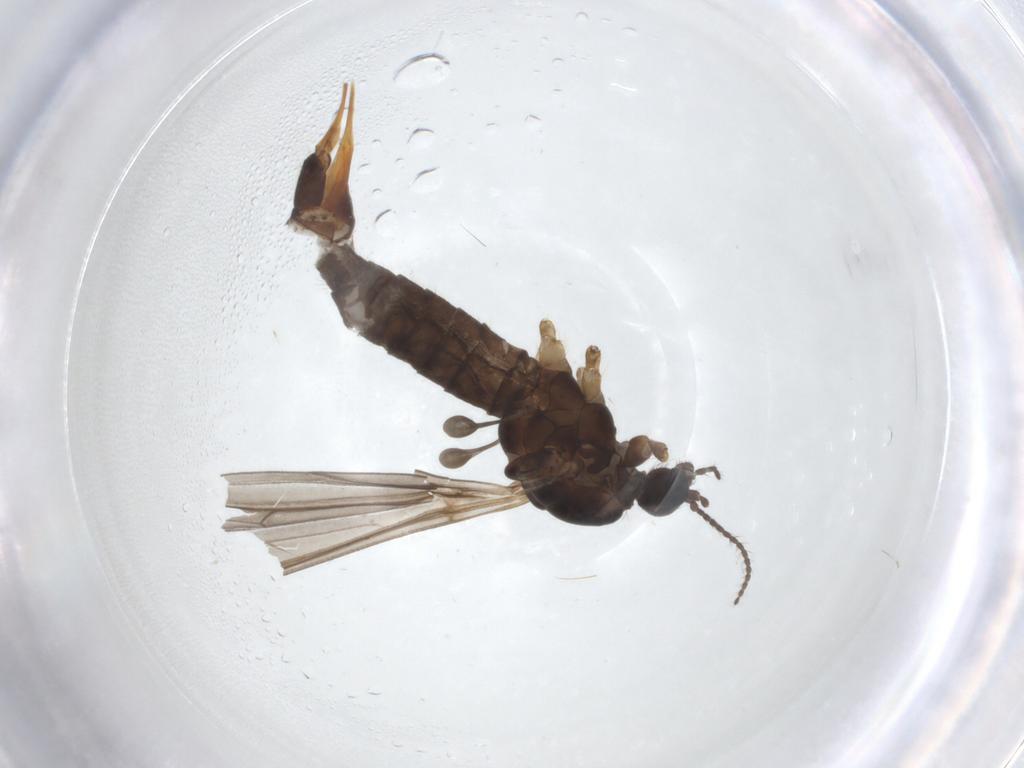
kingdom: Animalia
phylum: Arthropoda
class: Insecta
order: Diptera
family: Limoniidae
